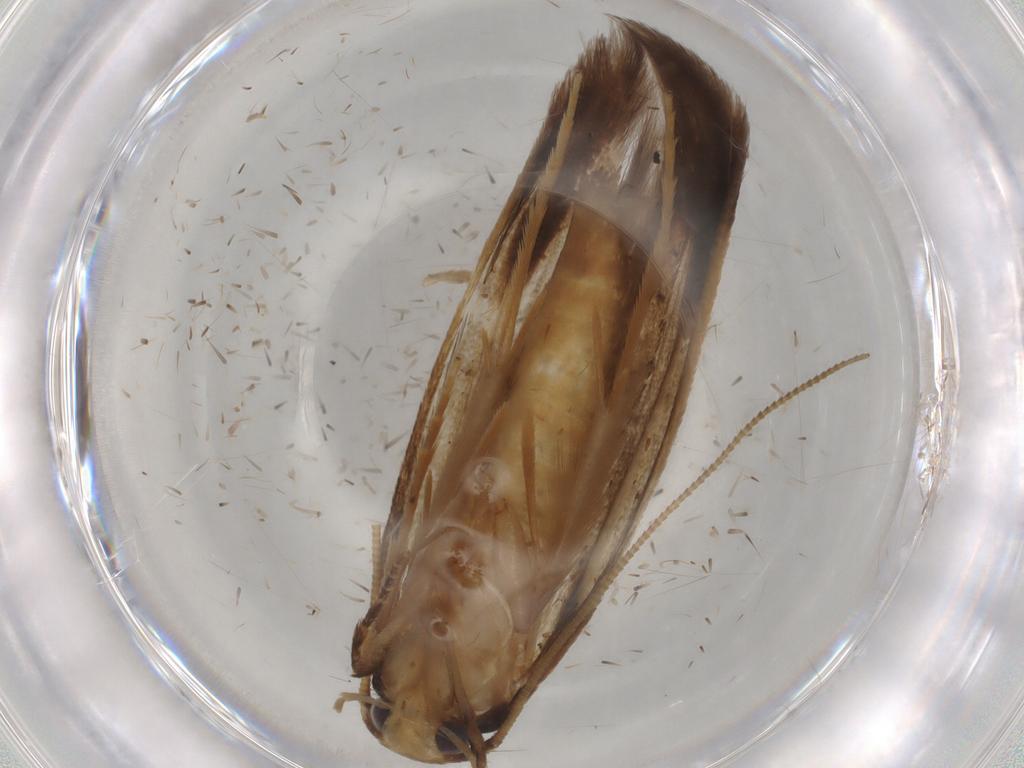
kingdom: Animalia
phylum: Arthropoda
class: Insecta
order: Lepidoptera
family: Tineidae
